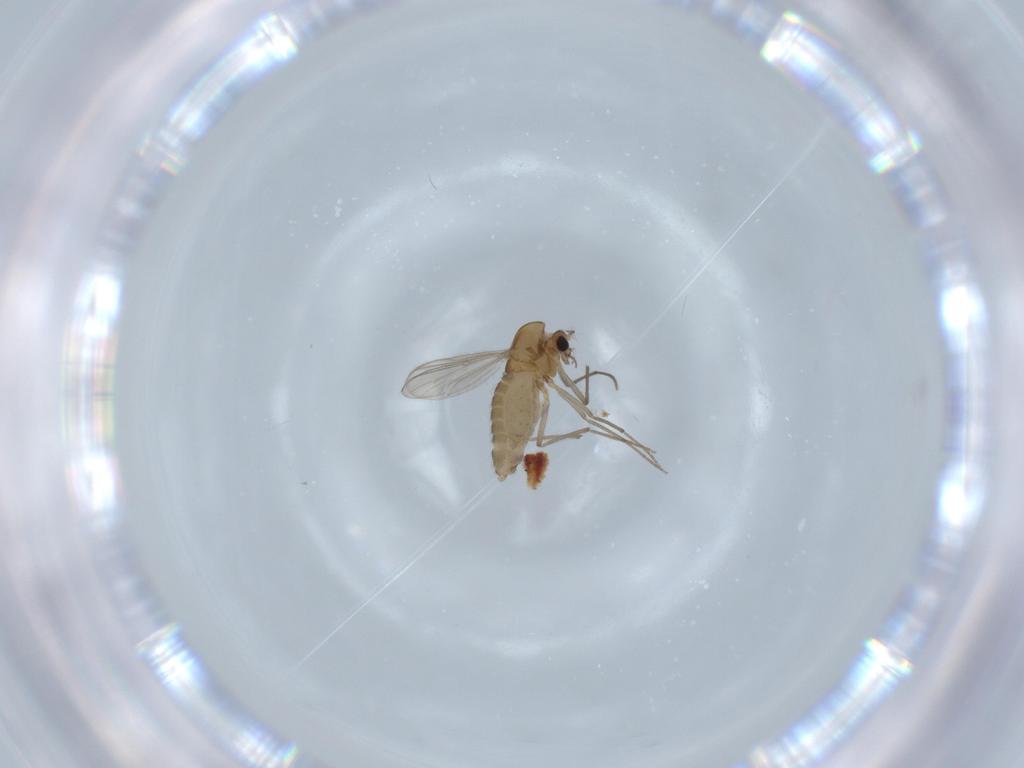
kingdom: Animalia
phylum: Arthropoda
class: Insecta
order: Diptera
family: Chironomidae
